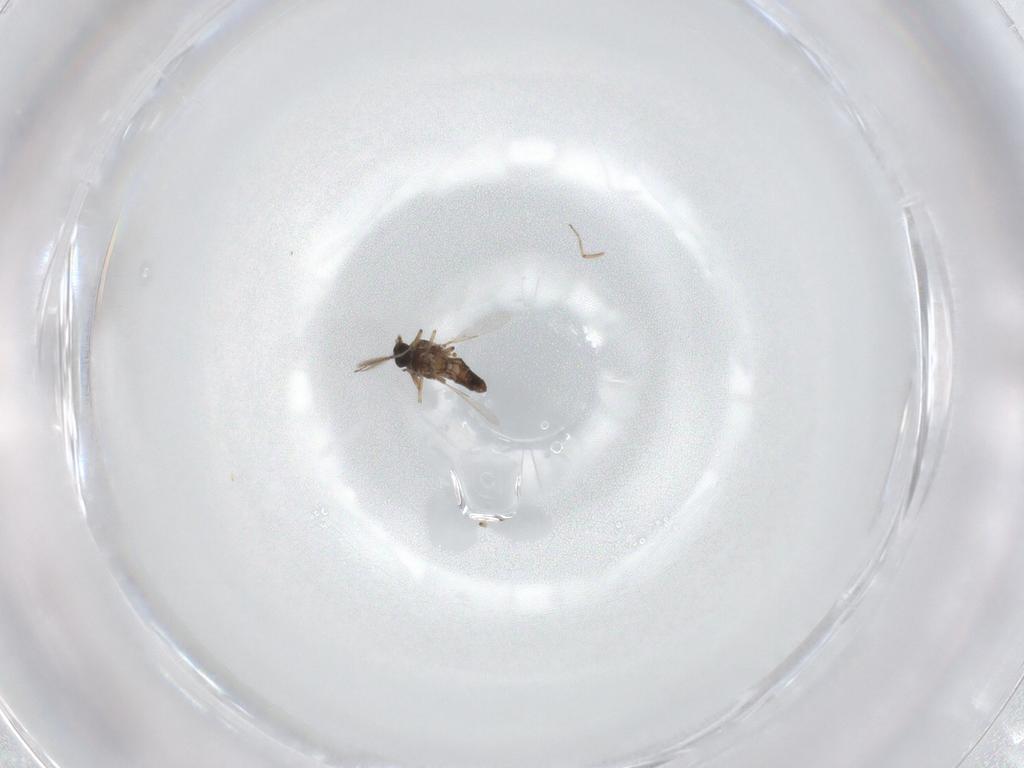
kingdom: Animalia
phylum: Arthropoda
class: Insecta
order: Diptera
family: Ceratopogonidae
